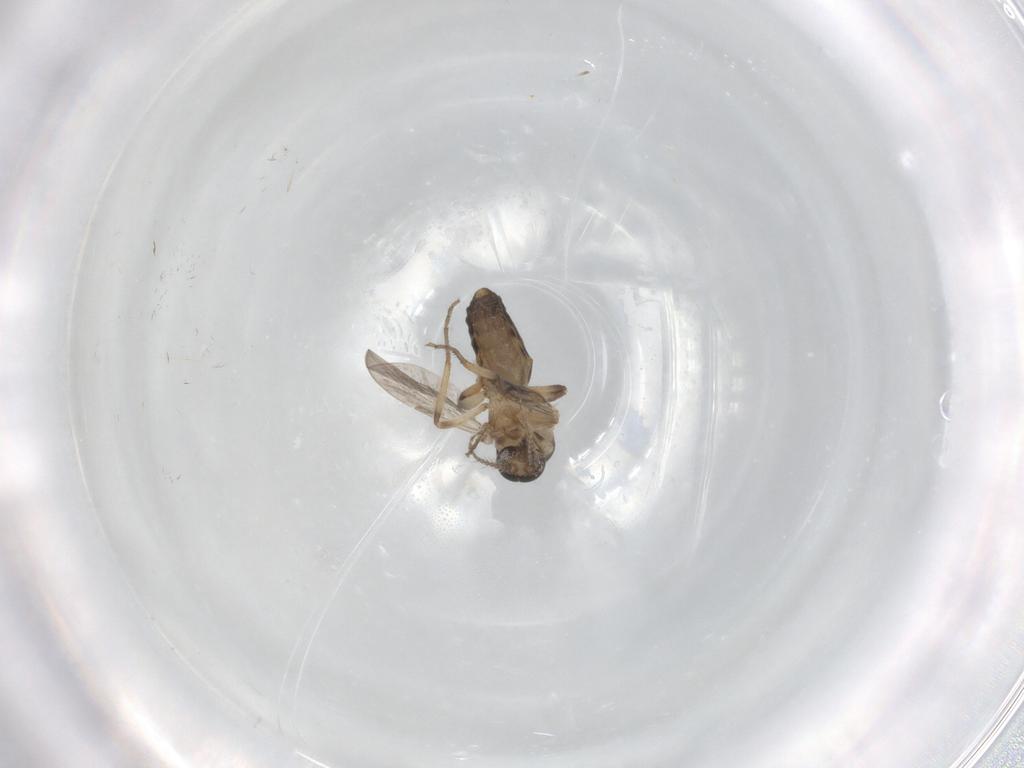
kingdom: Animalia
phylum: Arthropoda
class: Insecta
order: Diptera
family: Ceratopogonidae
